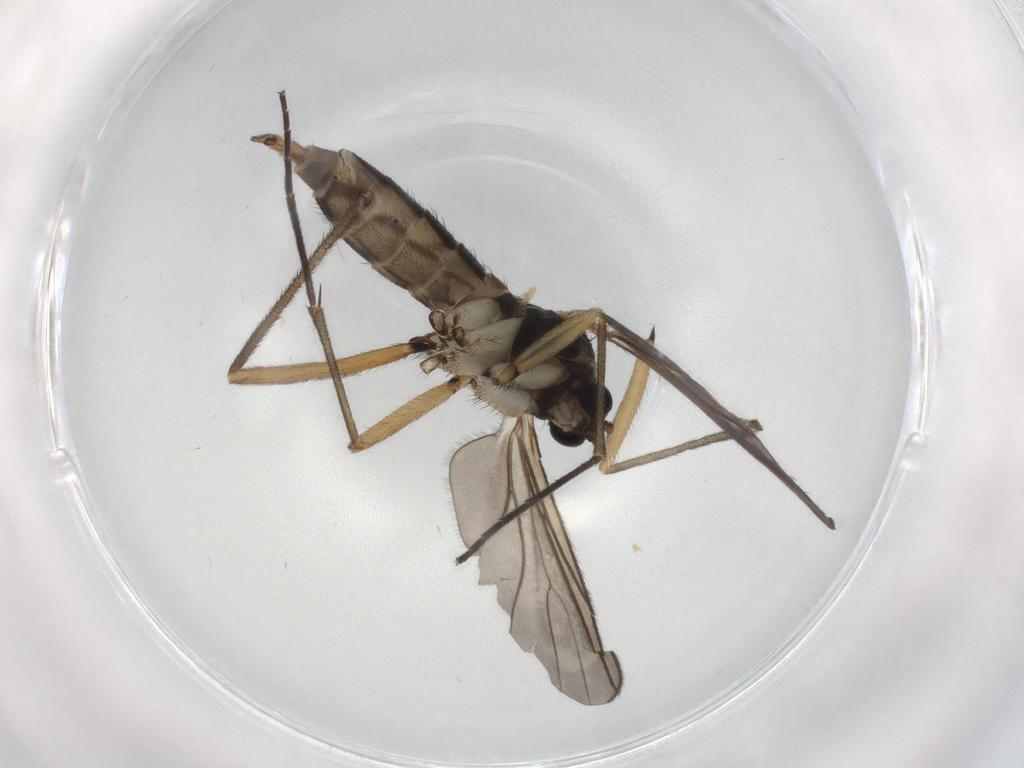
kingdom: Animalia
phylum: Arthropoda
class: Insecta
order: Diptera
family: Sciaridae
